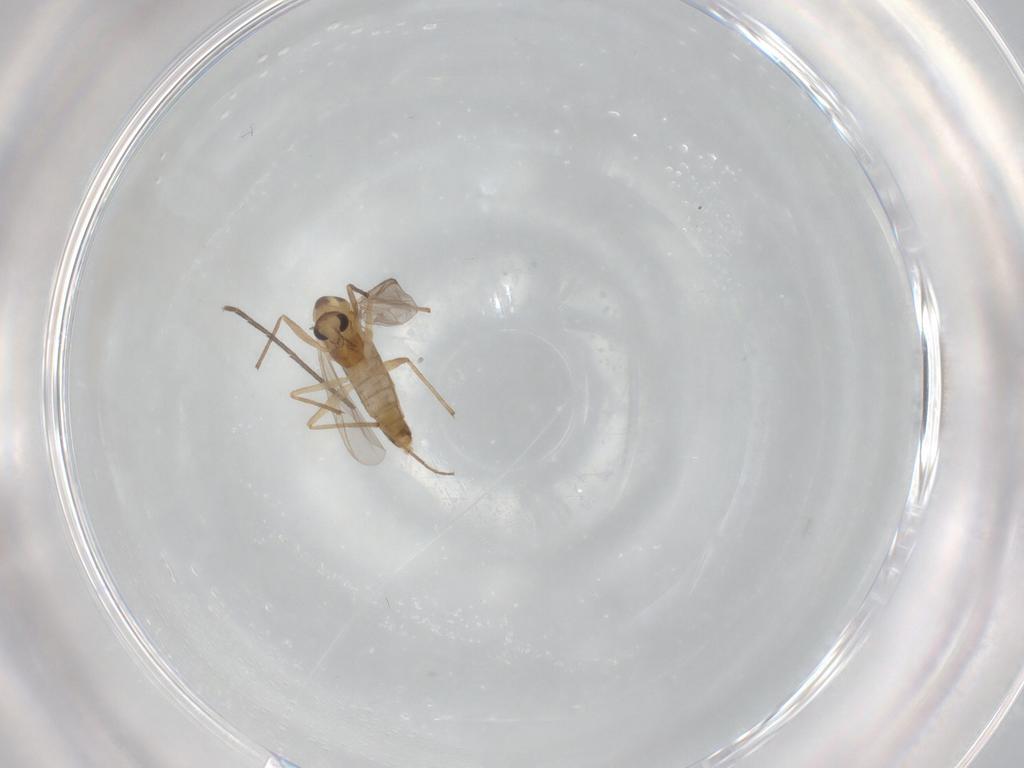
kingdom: Animalia
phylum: Arthropoda
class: Insecta
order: Diptera
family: Chironomidae
